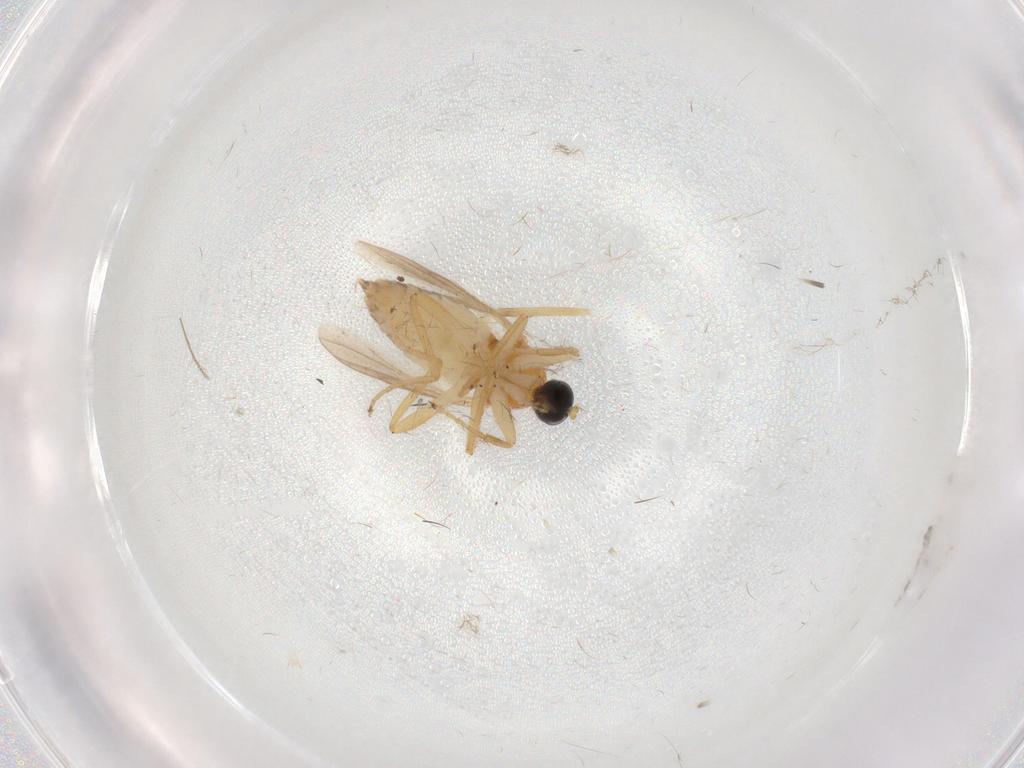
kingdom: Animalia
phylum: Arthropoda
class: Insecta
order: Diptera
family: Hybotidae
